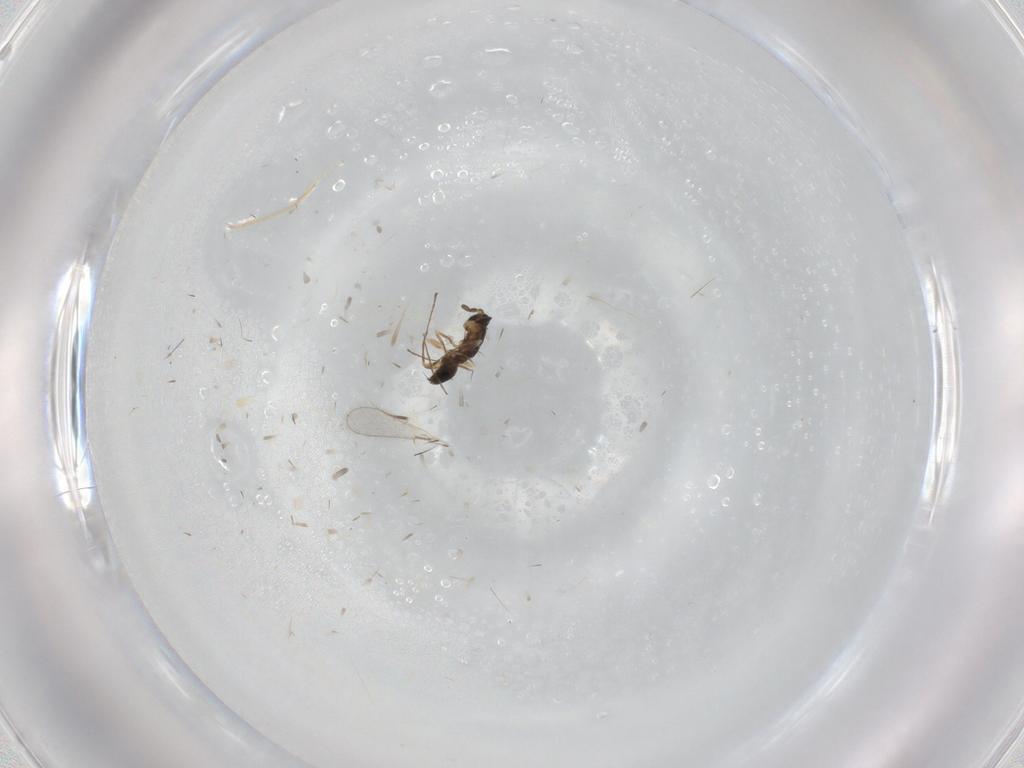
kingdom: Animalia
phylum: Arthropoda
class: Insecta
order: Hymenoptera
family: Mymaridae
